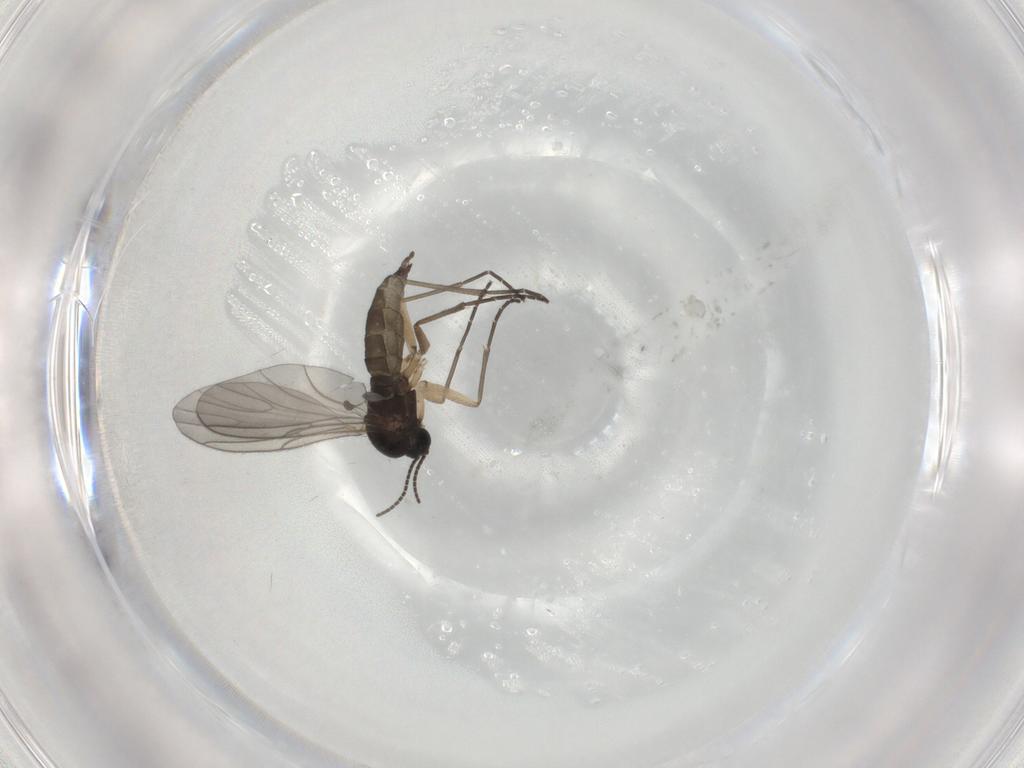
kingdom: Animalia
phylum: Arthropoda
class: Insecta
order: Diptera
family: Sciaridae
